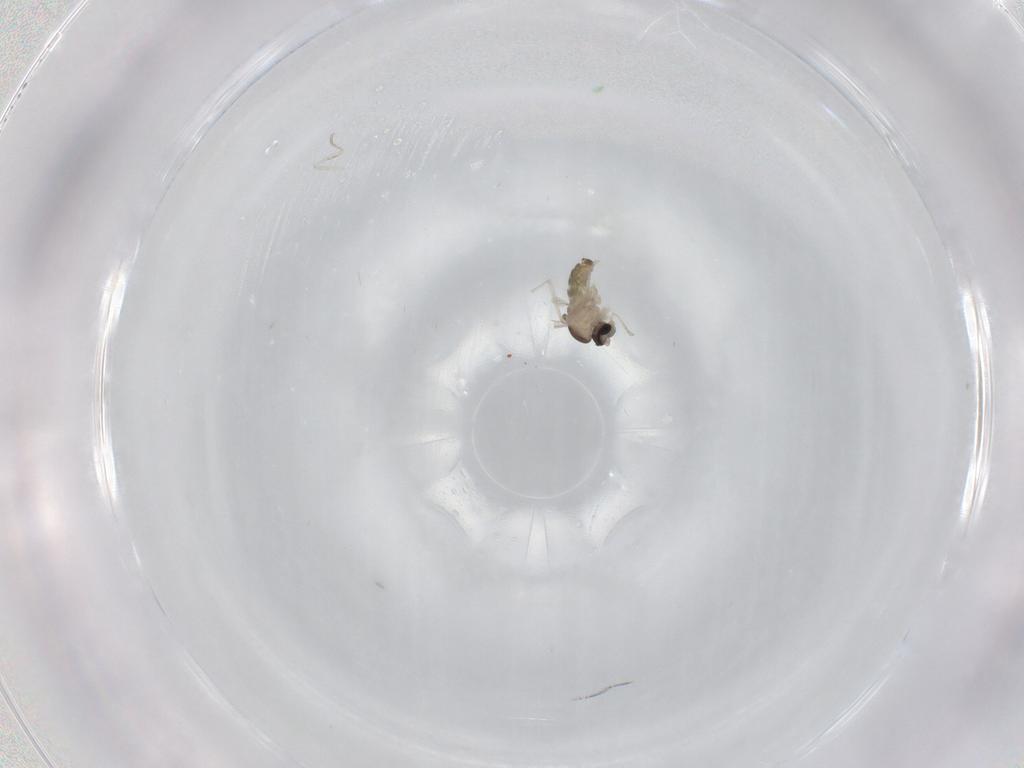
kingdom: Animalia
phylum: Arthropoda
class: Insecta
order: Diptera
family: Cecidomyiidae
